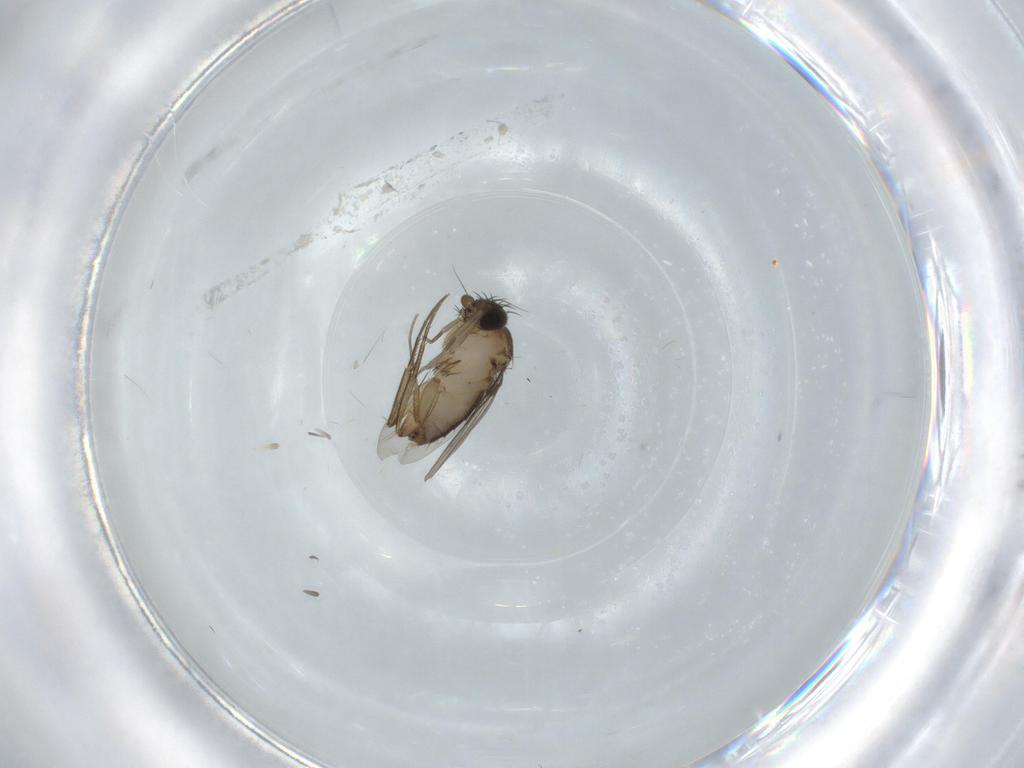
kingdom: Animalia
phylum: Arthropoda
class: Insecta
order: Diptera
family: Phoridae
